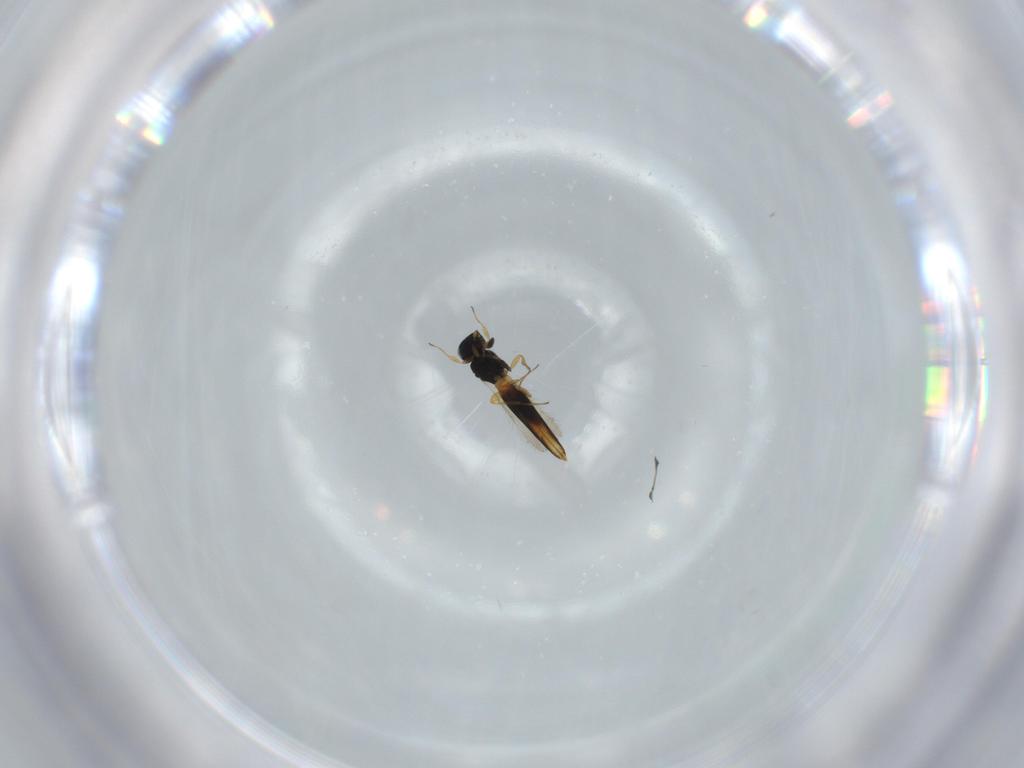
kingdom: Animalia
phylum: Arthropoda
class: Insecta
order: Hymenoptera
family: Scelionidae
